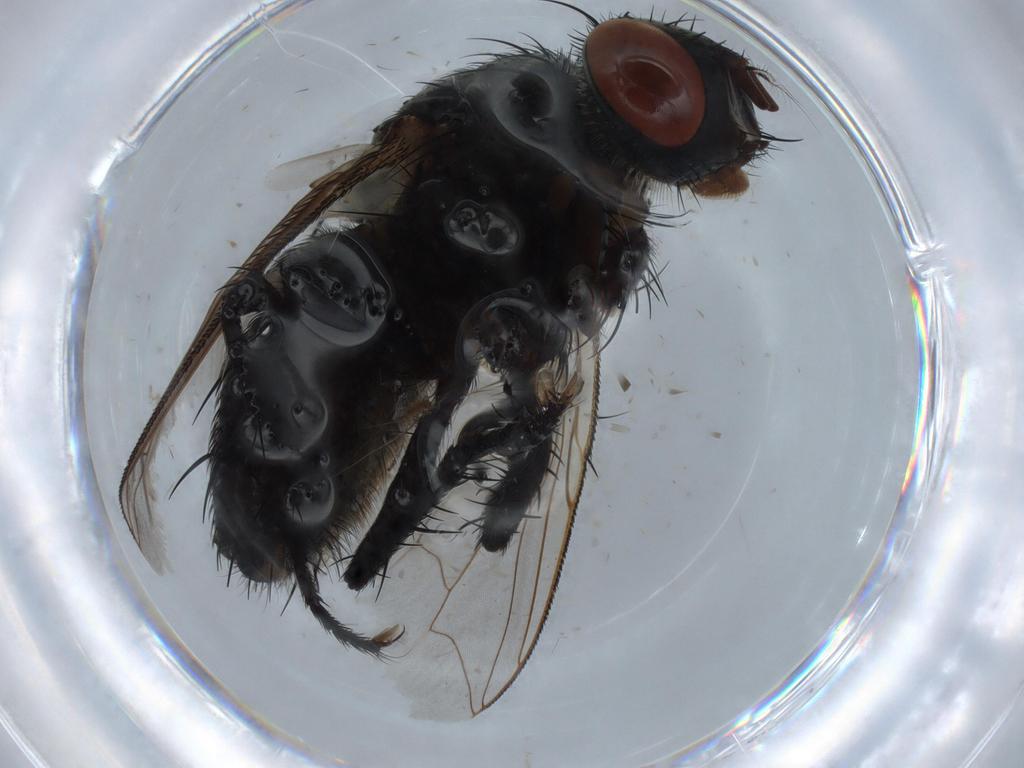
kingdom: Animalia
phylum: Arthropoda
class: Insecta
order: Diptera
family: Sarcophagidae
